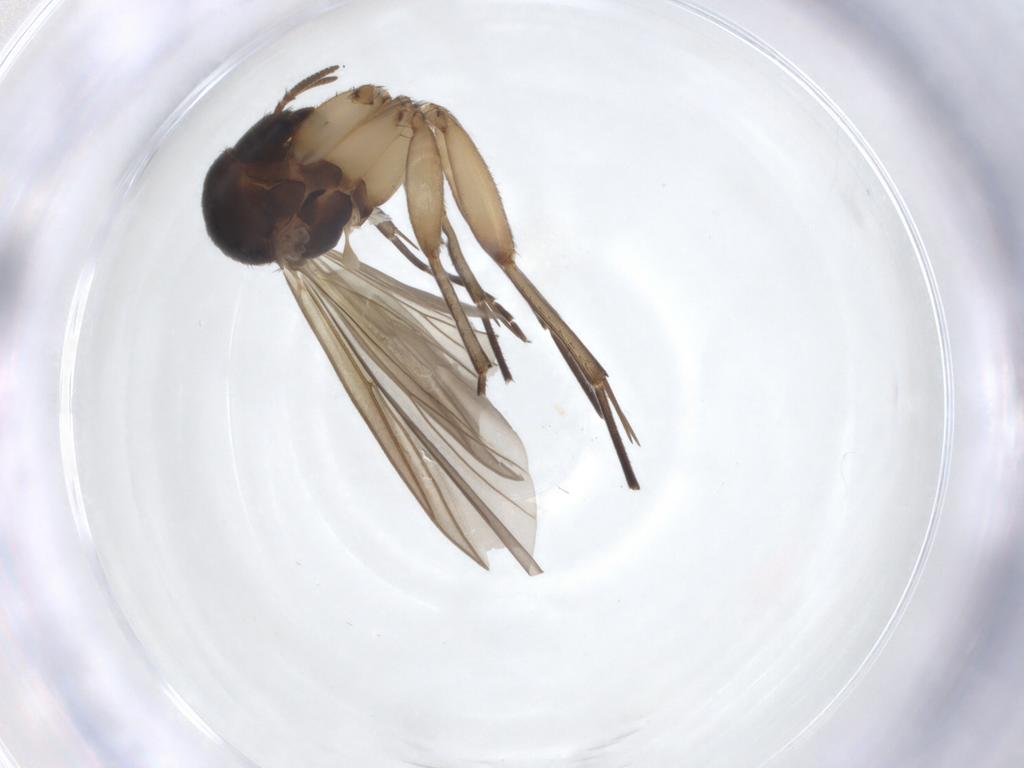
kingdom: Animalia
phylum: Arthropoda
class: Insecta
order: Diptera
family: Mycetophilidae
